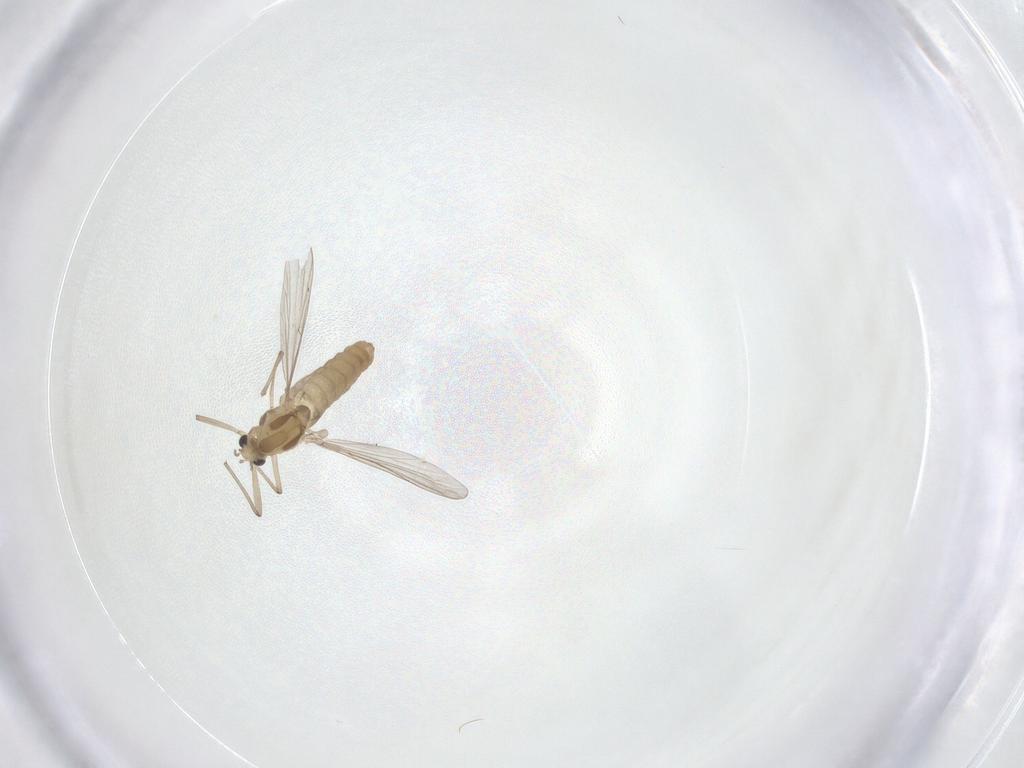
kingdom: Animalia
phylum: Arthropoda
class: Insecta
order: Diptera
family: Chironomidae
